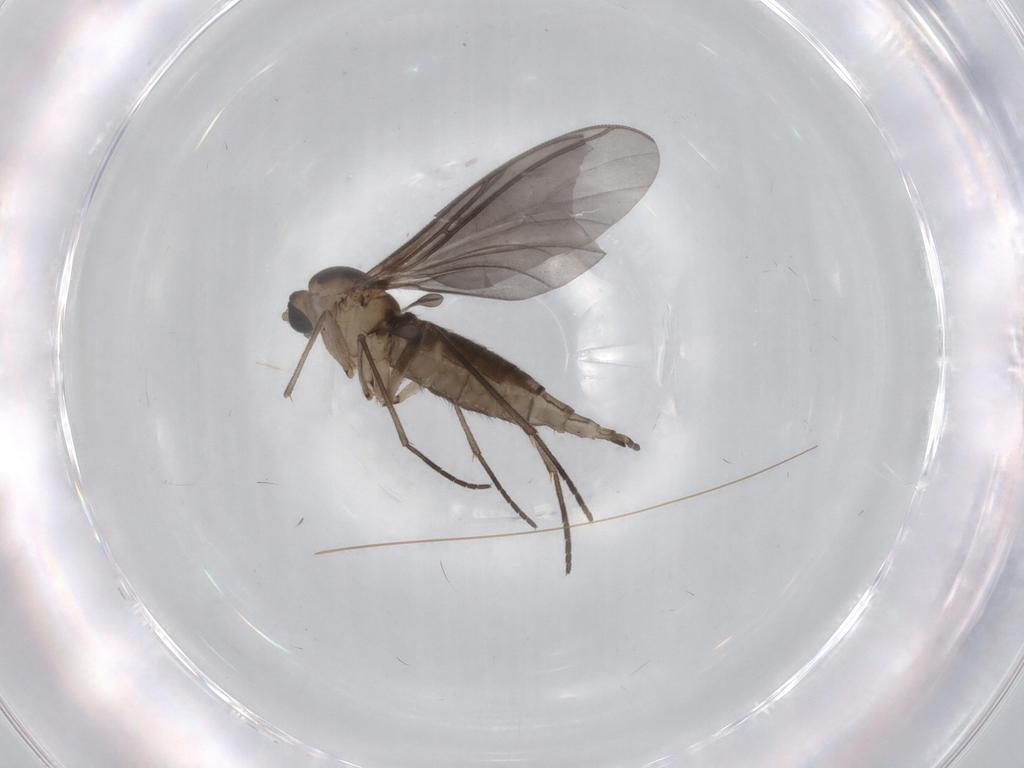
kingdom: Animalia
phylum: Arthropoda
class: Insecta
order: Diptera
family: Sciaridae
